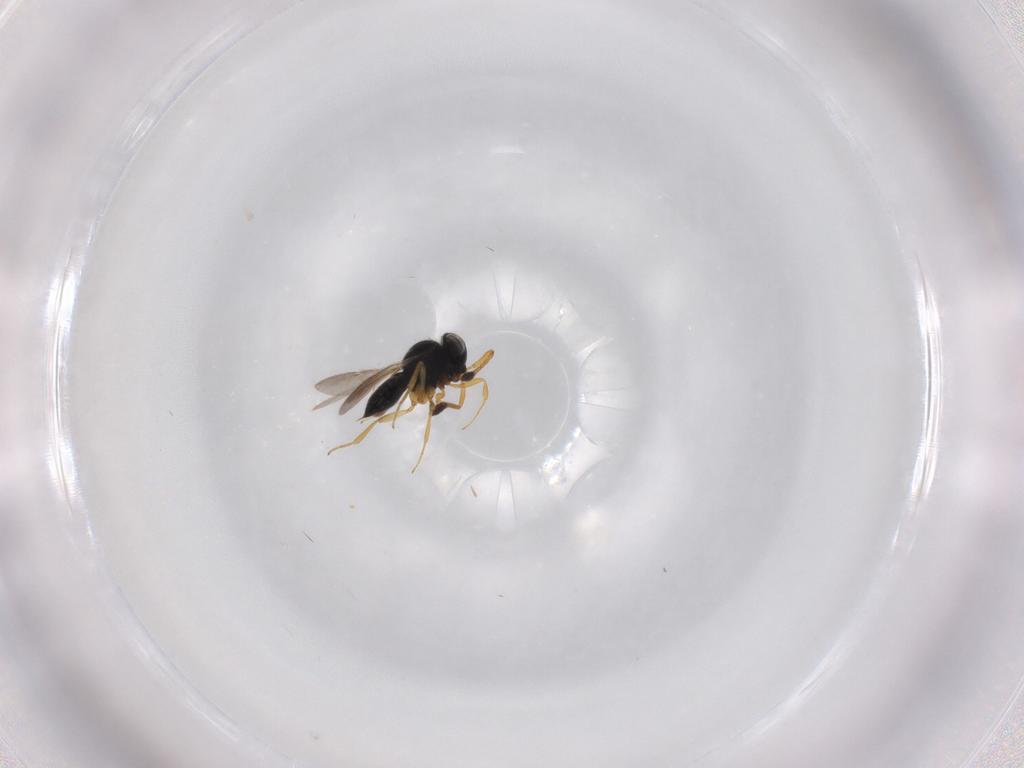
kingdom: Animalia
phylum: Arthropoda
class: Insecta
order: Hymenoptera
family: Scelionidae
